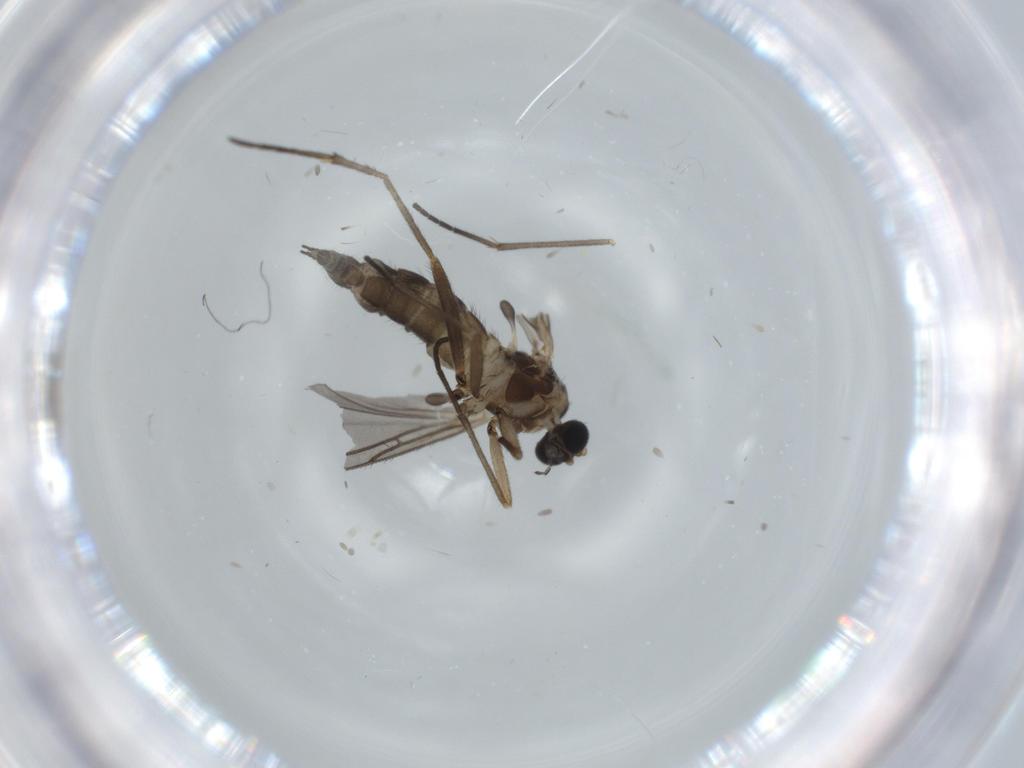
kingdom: Animalia
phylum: Arthropoda
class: Insecta
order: Diptera
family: Sciaridae
